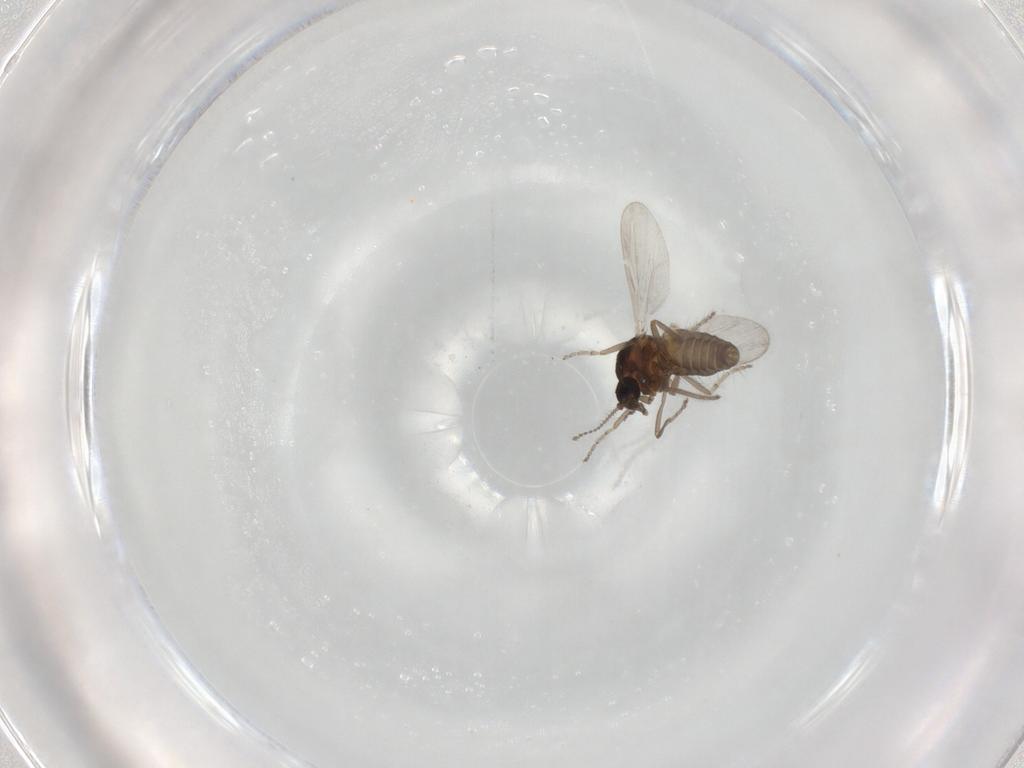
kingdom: Animalia
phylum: Arthropoda
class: Insecta
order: Diptera
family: Ceratopogonidae
